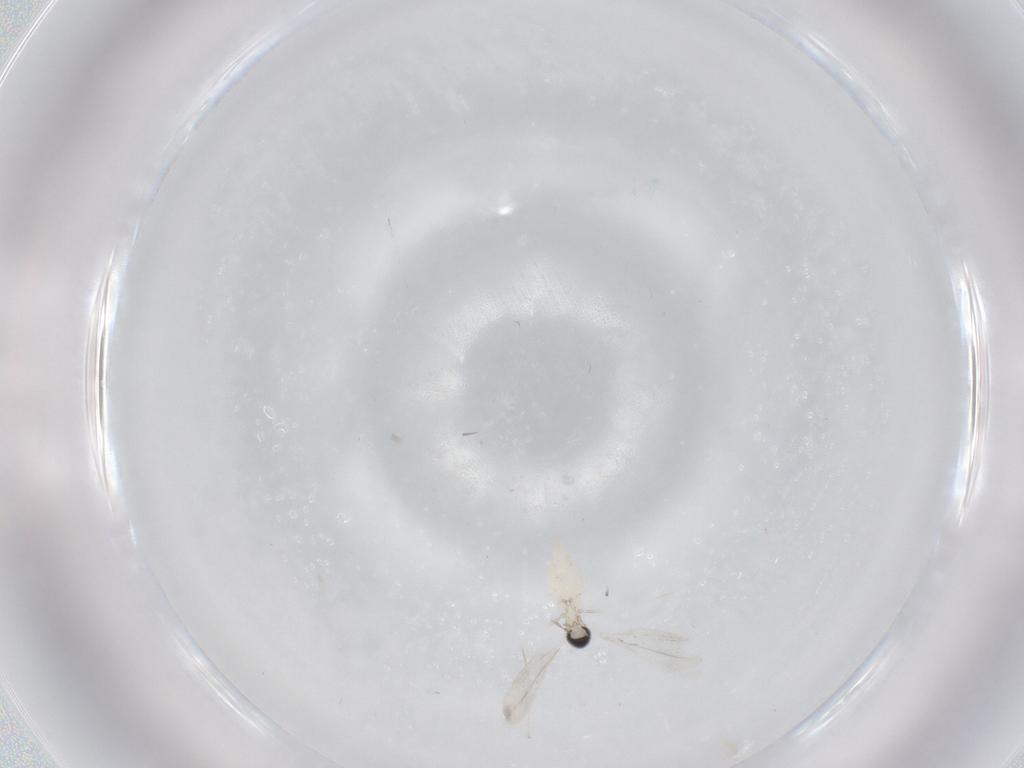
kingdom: Animalia
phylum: Arthropoda
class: Insecta
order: Diptera
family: Cecidomyiidae
